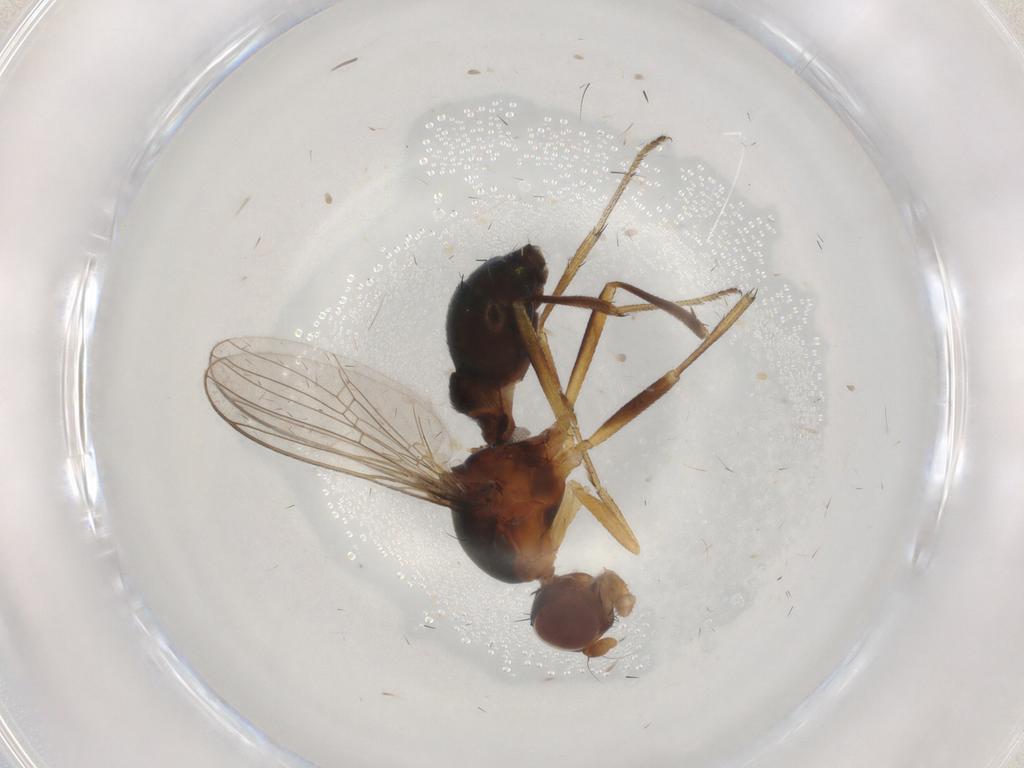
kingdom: Animalia
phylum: Arthropoda
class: Insecta
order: Diptera
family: Sepsidae
